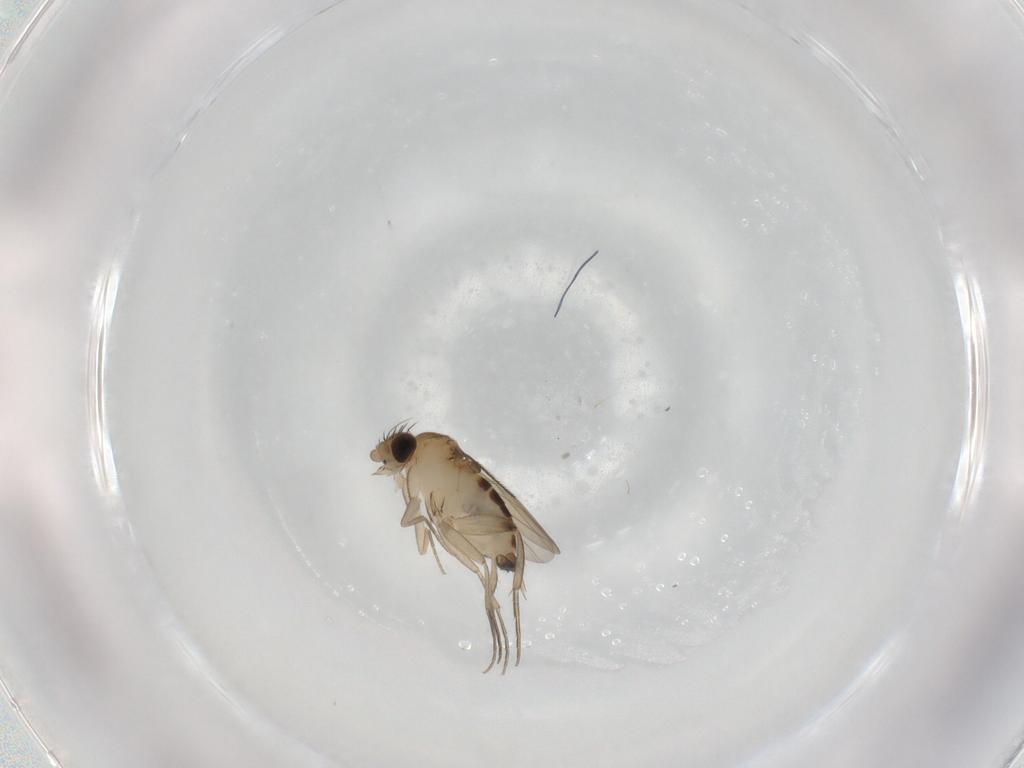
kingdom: Animalia
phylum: Arthropoda
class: Insecta
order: Diptera
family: Phoridae
